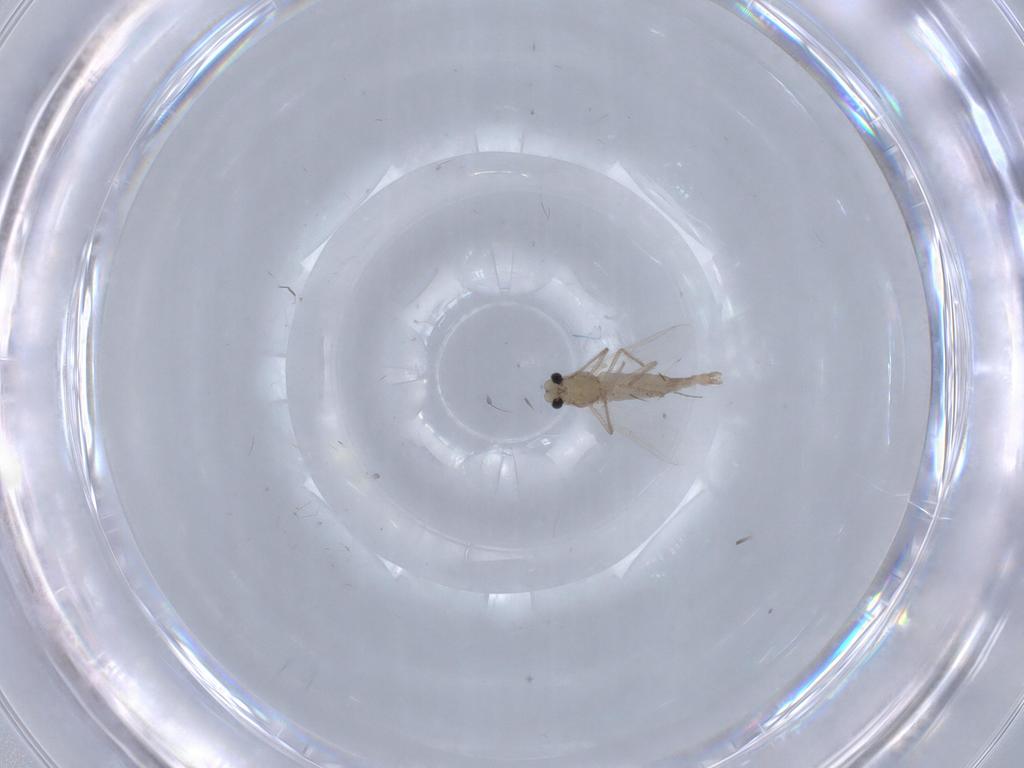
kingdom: Animalia
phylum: Arthropoda
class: Insecta
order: Diptera
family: Chironomidae
